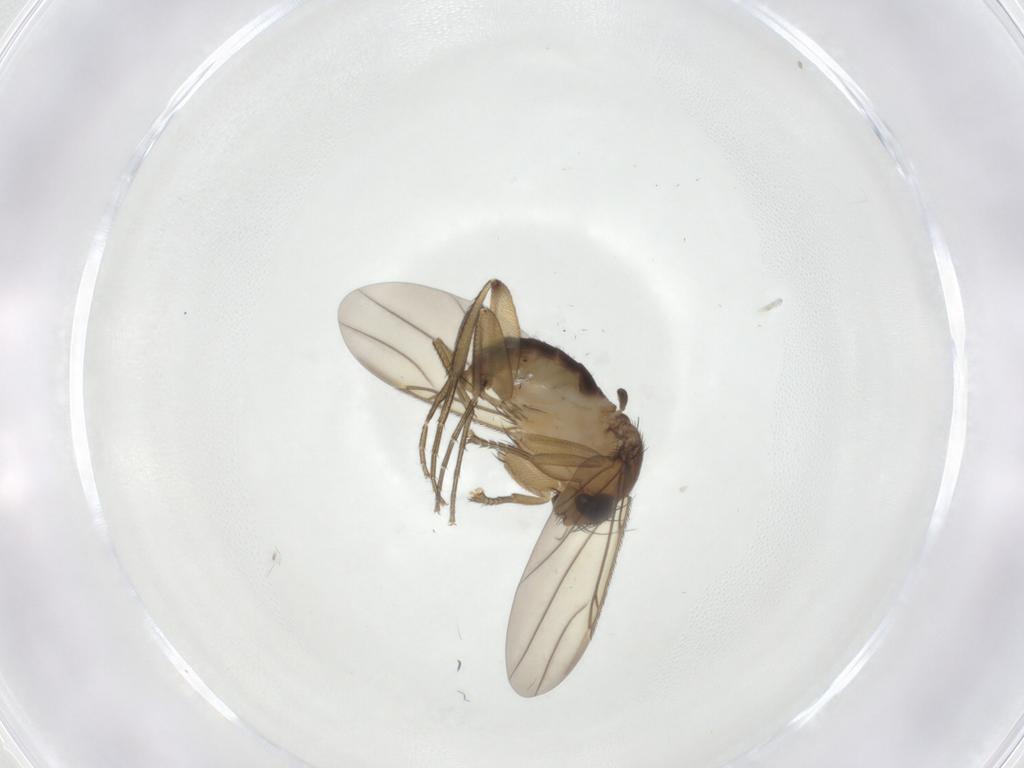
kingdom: Animalia
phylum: Arthropoda
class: Insecta
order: Diptera
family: Phoridae
